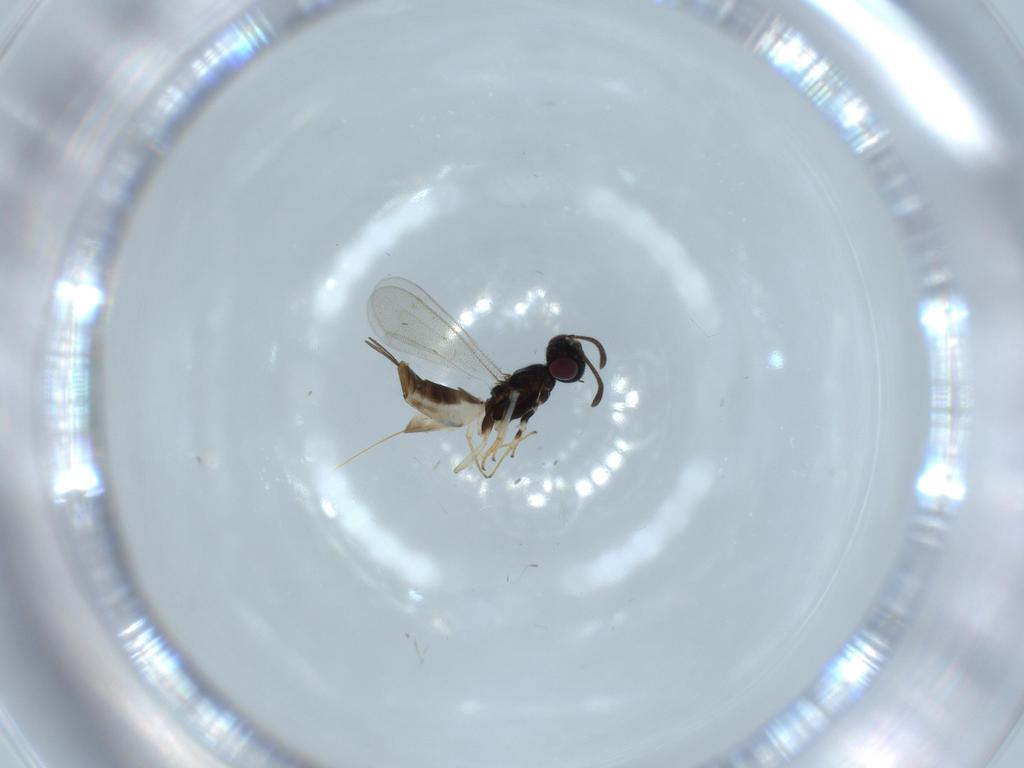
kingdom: Animalia
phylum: Arthropoda
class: Insecta
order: Hymenoptera
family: Eupelmidae
